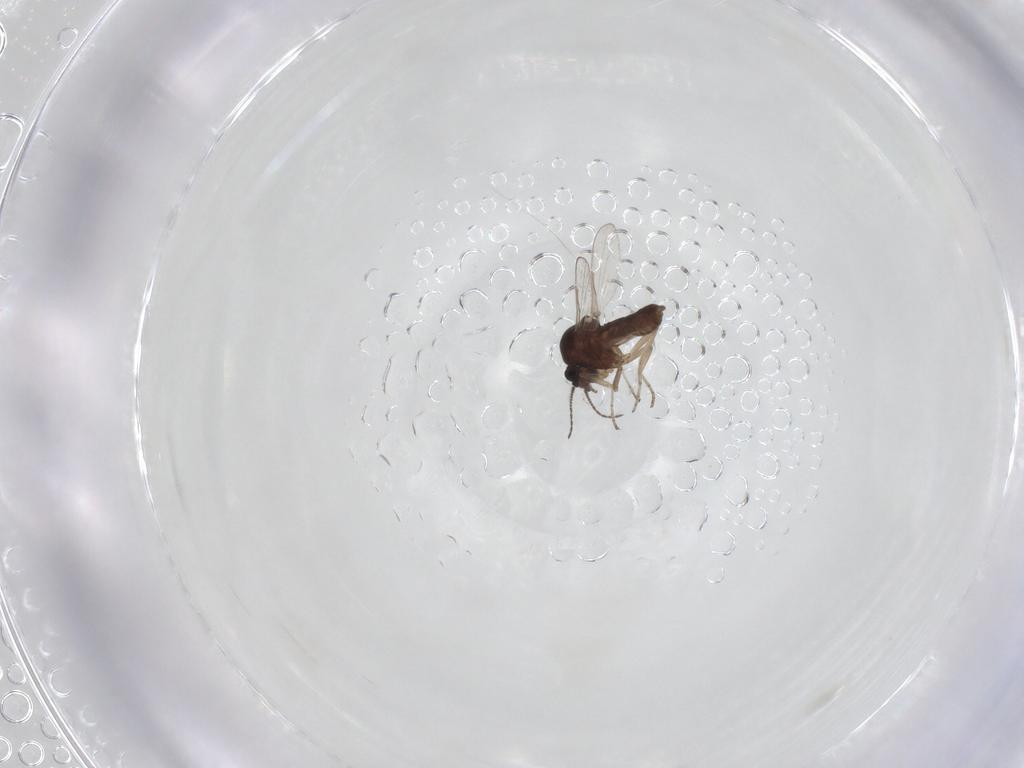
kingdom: Animalia
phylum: Arthropoda
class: Insecta
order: Diptera
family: Ceratopogonidae
